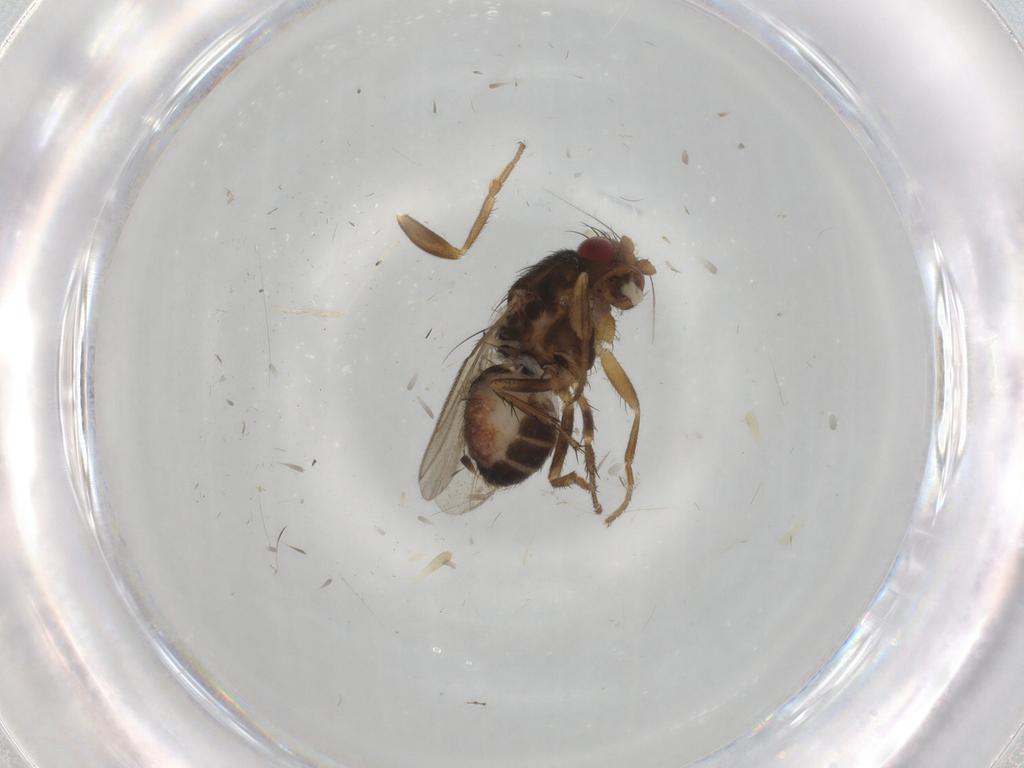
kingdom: Animalia
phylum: Arthropoda
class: Insecta
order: Diptera
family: Sphaeroceridae
